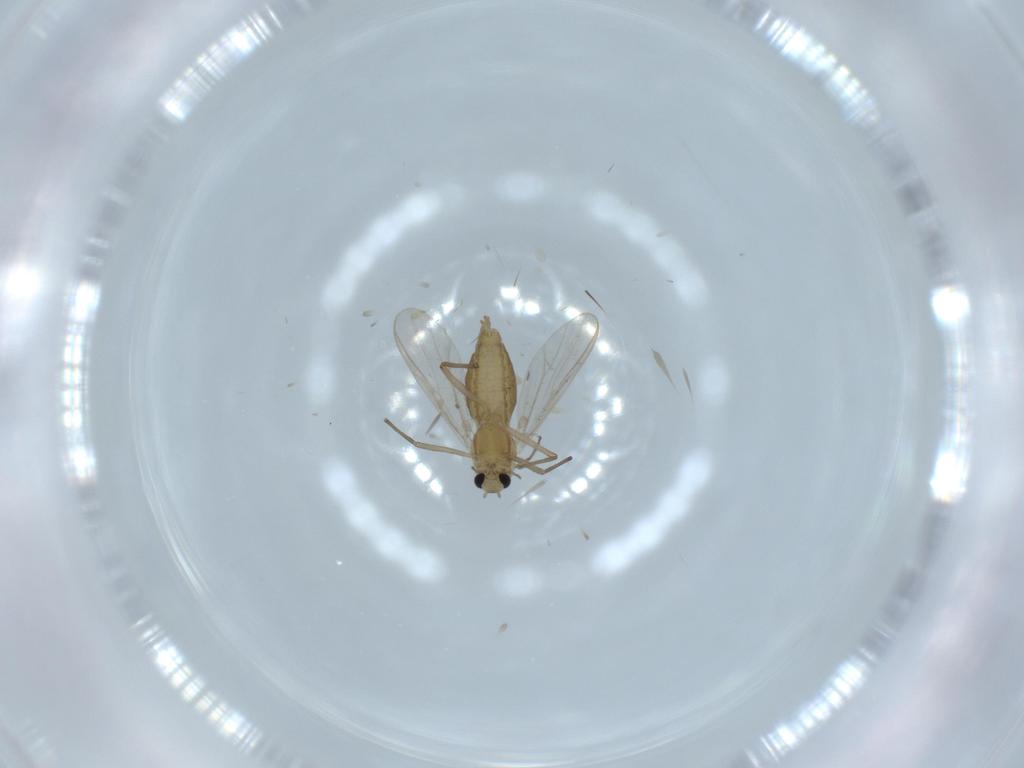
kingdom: Animalia
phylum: Arthropoda
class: Insecta
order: Diptera
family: Chironomidae
